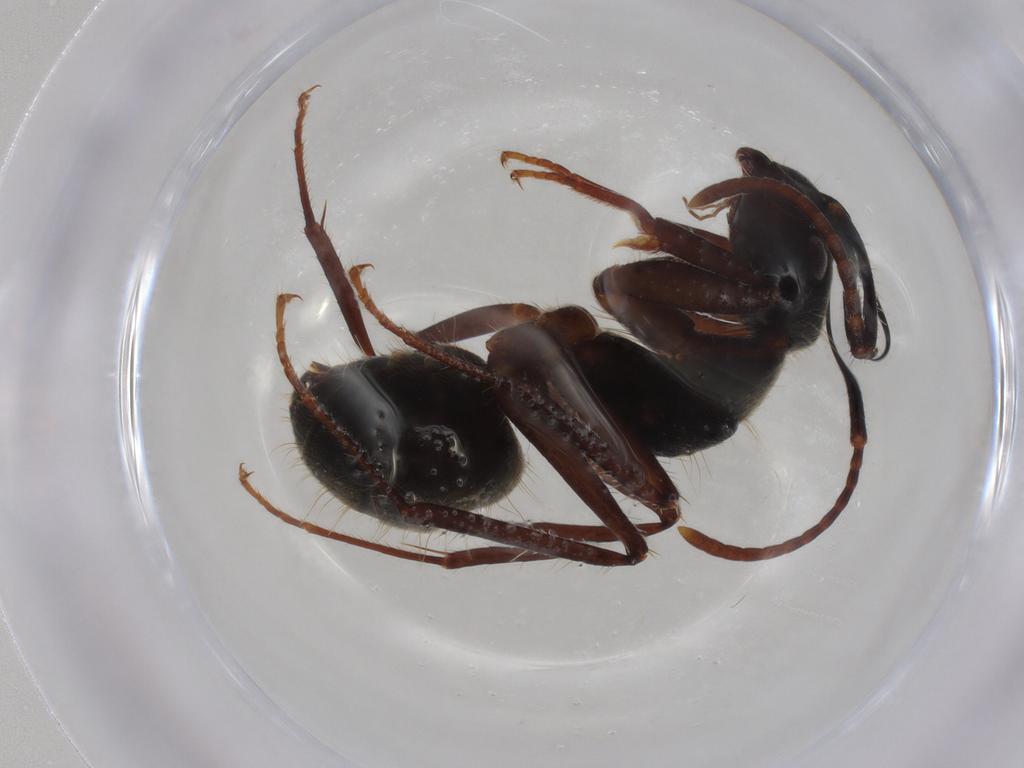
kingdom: Animalia
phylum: Arthropoda
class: Insecta
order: Hymenoptera
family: Formicidae
